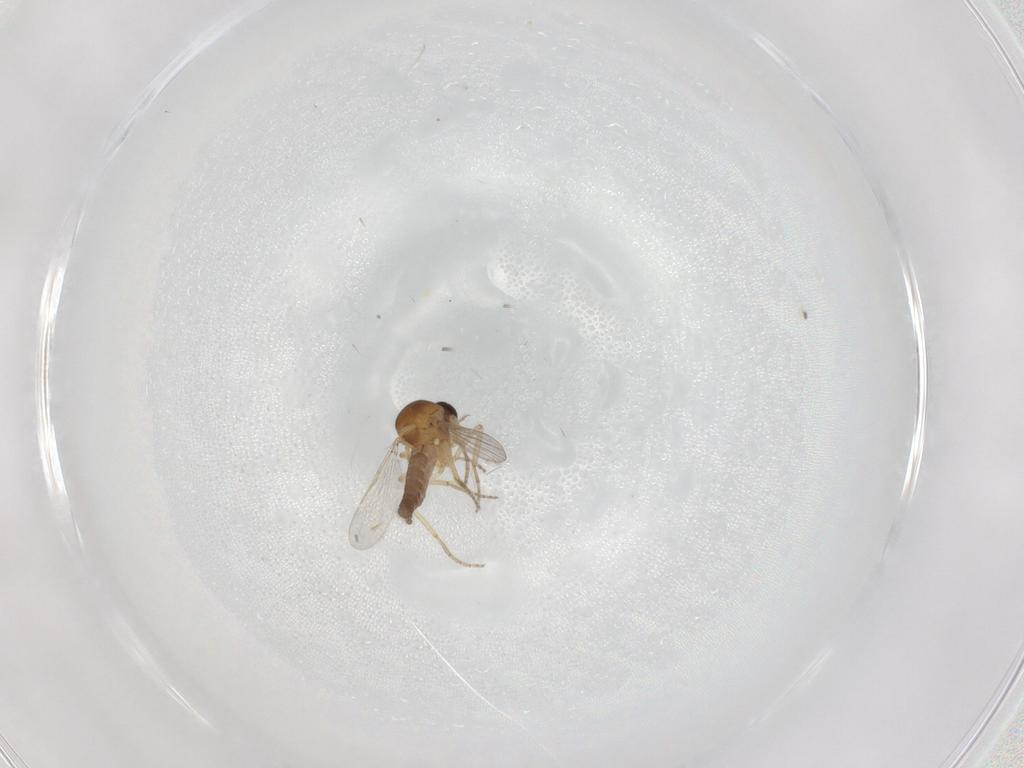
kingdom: Animalia
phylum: Arthropoda
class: Insecta
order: Diptera
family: Ceratopogonidae
